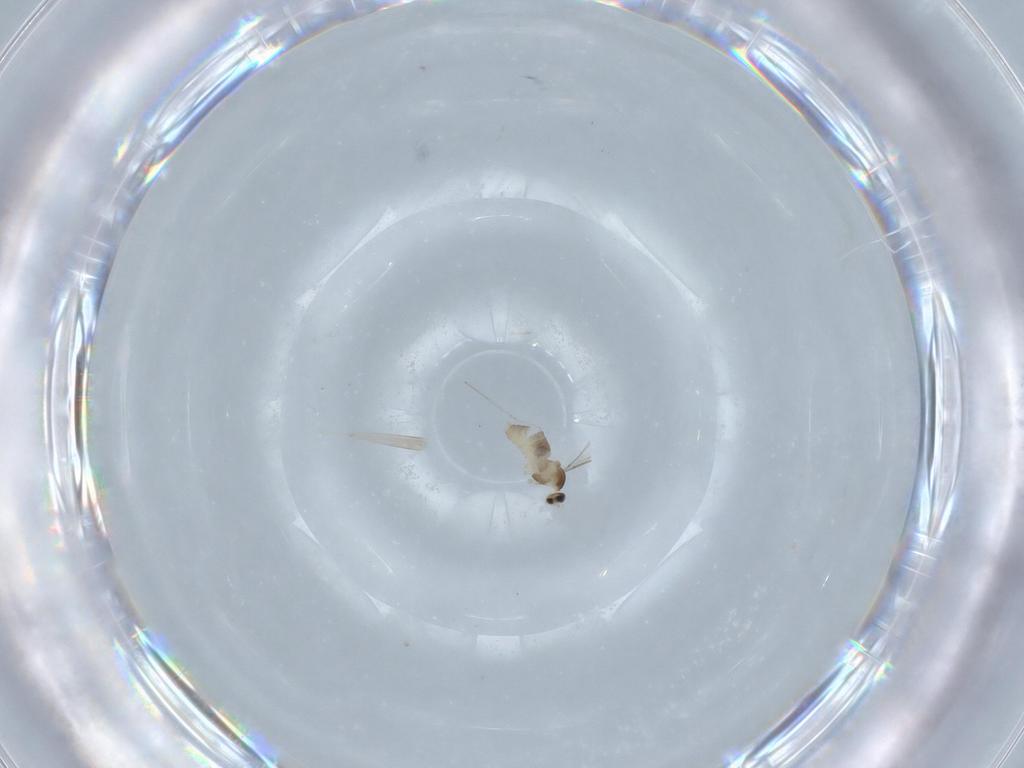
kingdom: Animalia
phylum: Arthropoda
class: Insecta
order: Diptera
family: Cecidomyiidae
